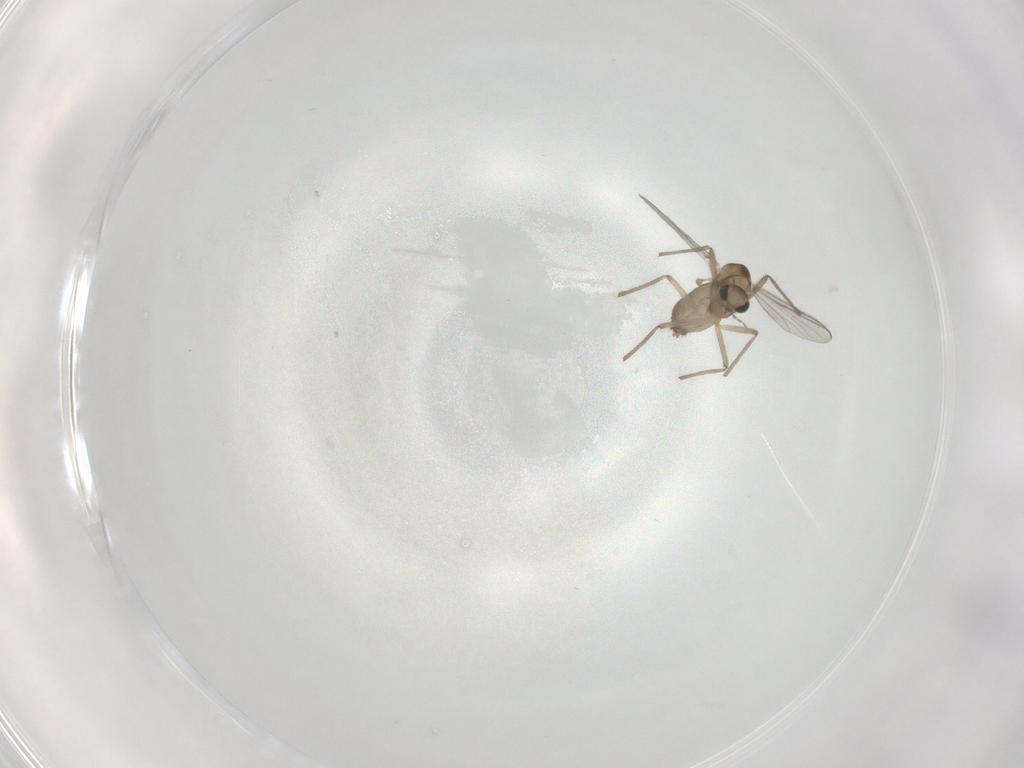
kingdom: Animalia
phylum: Arthropoda
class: Insecta
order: Diptera
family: Chironomidae
